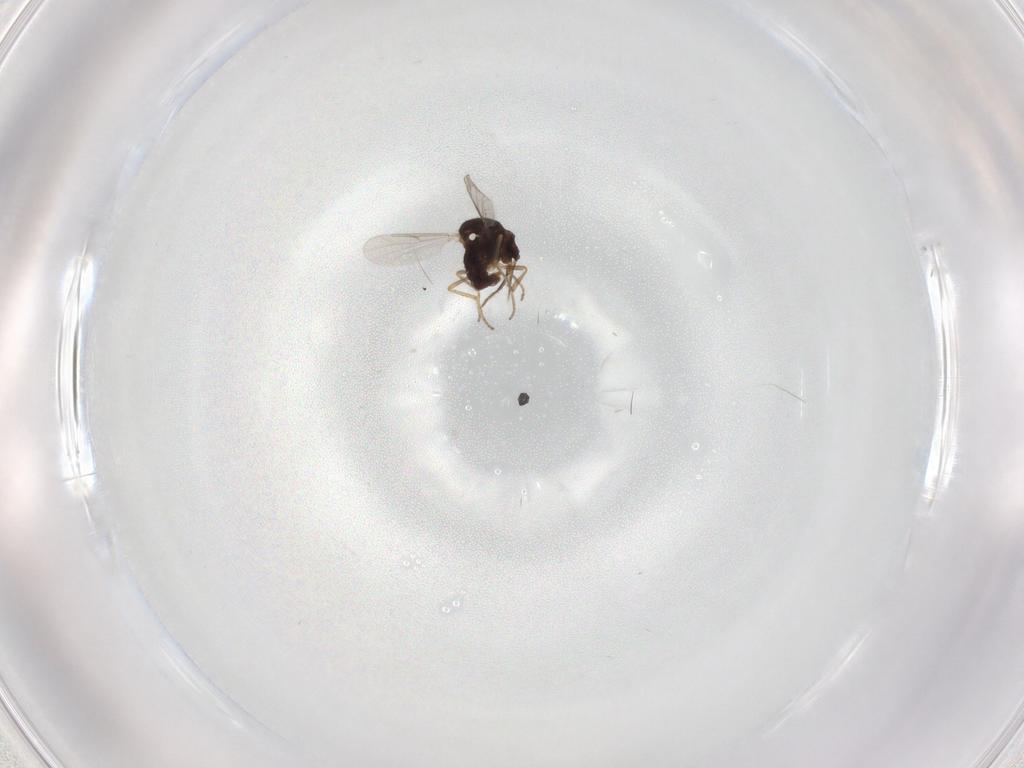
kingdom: Animalia
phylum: Arthropoda
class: Insecta
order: Diptera
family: Ceratopogonidae
